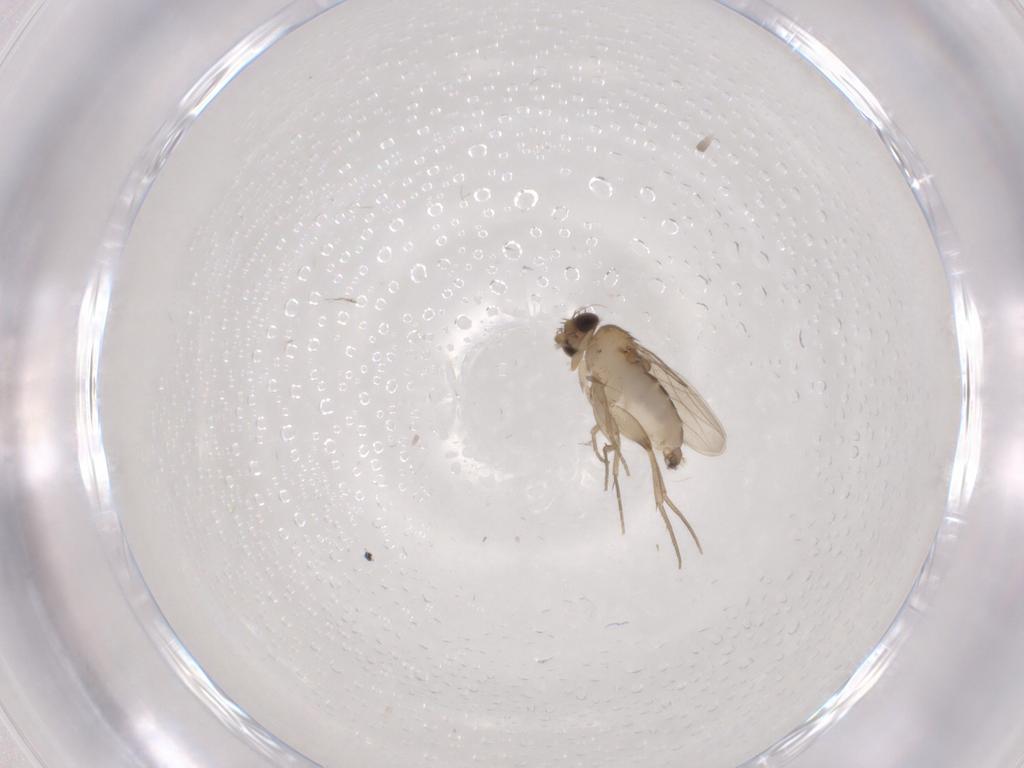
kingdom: Animalia
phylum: Arthropoda
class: Insecta
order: Diptera
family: Phoridae
